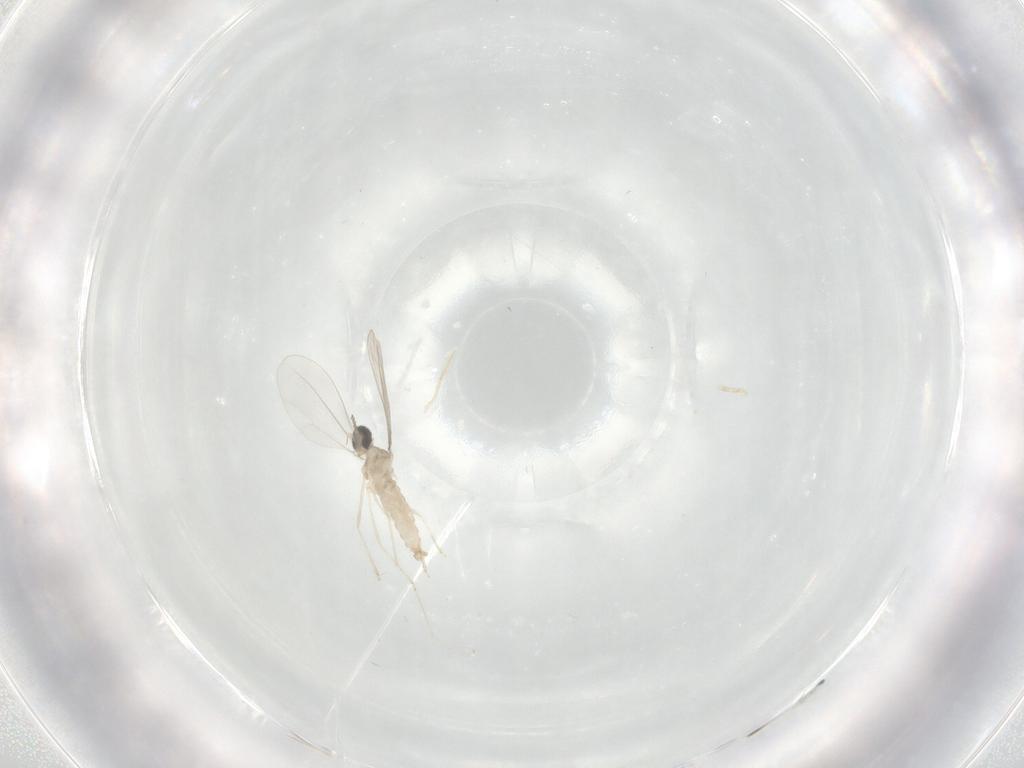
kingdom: Animalia
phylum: Arthropoda
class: Insecta
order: Diptera
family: Cecidomyiidae
